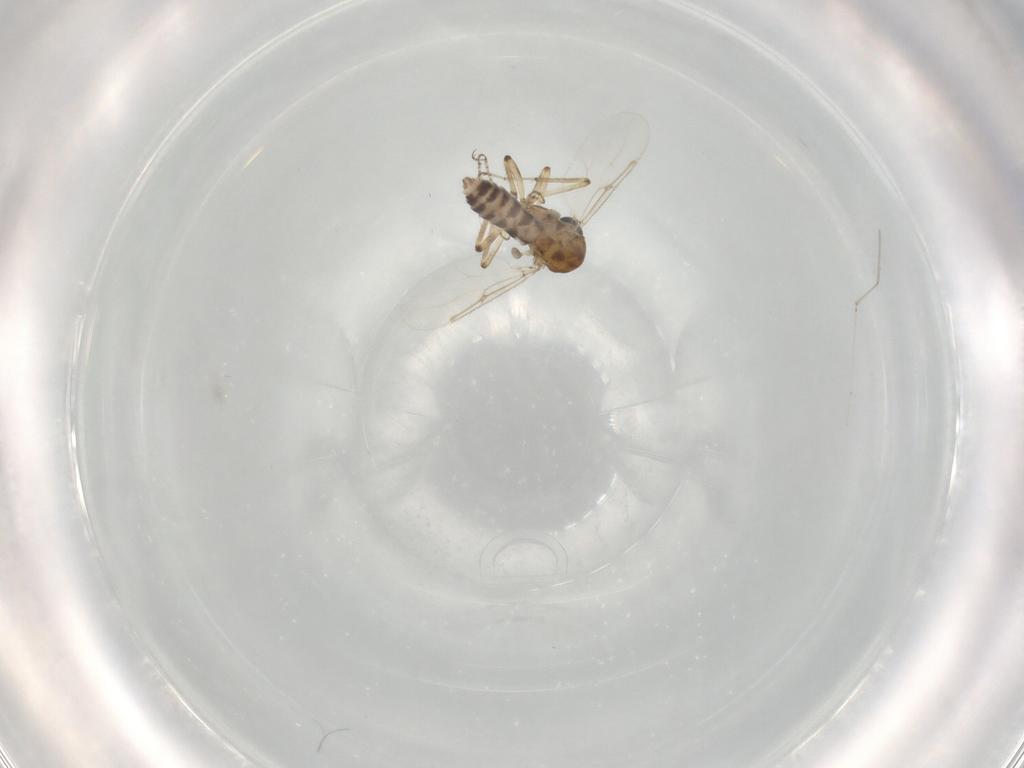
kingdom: Animalia
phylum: Arthropoda
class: Insecta
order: Diptera
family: Ceratopogonidae
